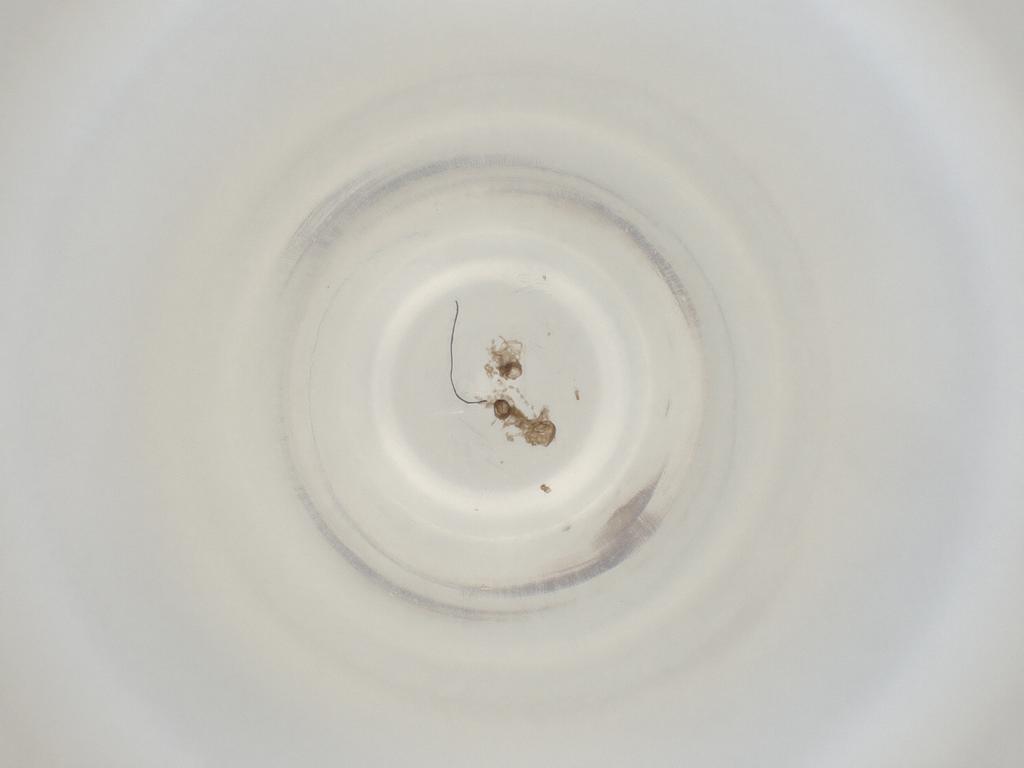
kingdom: Animalia
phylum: Arthropoda
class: Insecta
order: Diptera
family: Cecidomyiidae
